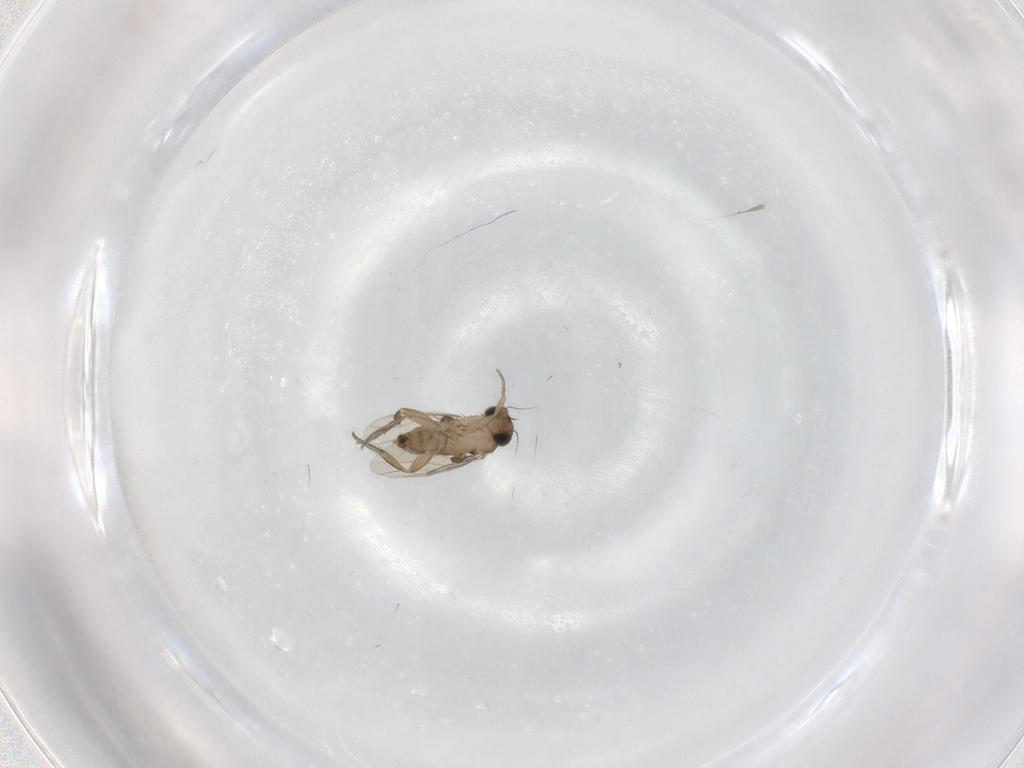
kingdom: Animalia
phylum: Arthropoda
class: Insecta
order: Diptera
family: Phoridae
